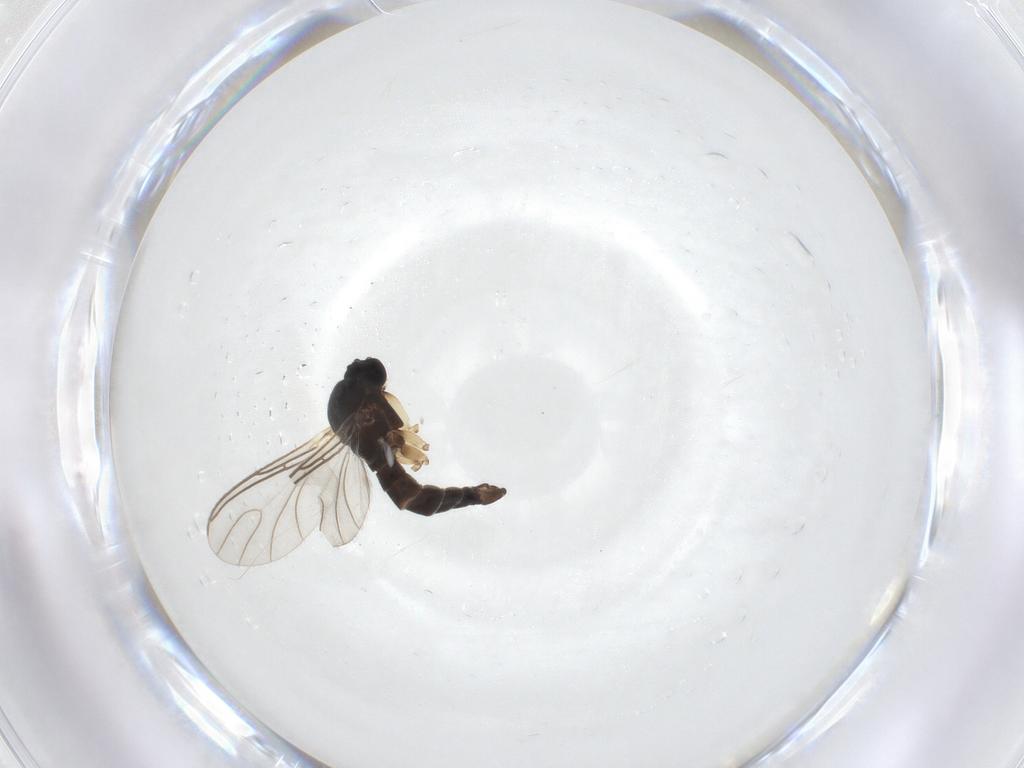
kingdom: Animalia
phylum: Arthropoda
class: Insecta
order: Diptera
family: Sciaridae
